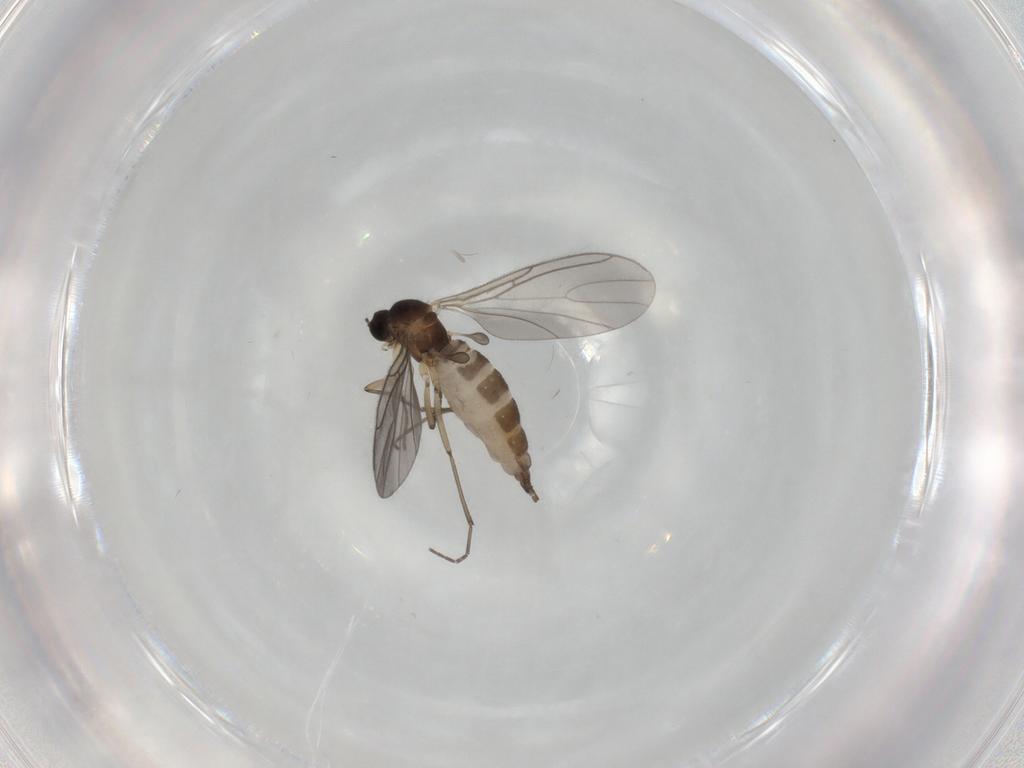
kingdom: Animalia
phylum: Arthropoda
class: Insecta
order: Diptera
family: Sciaridae
